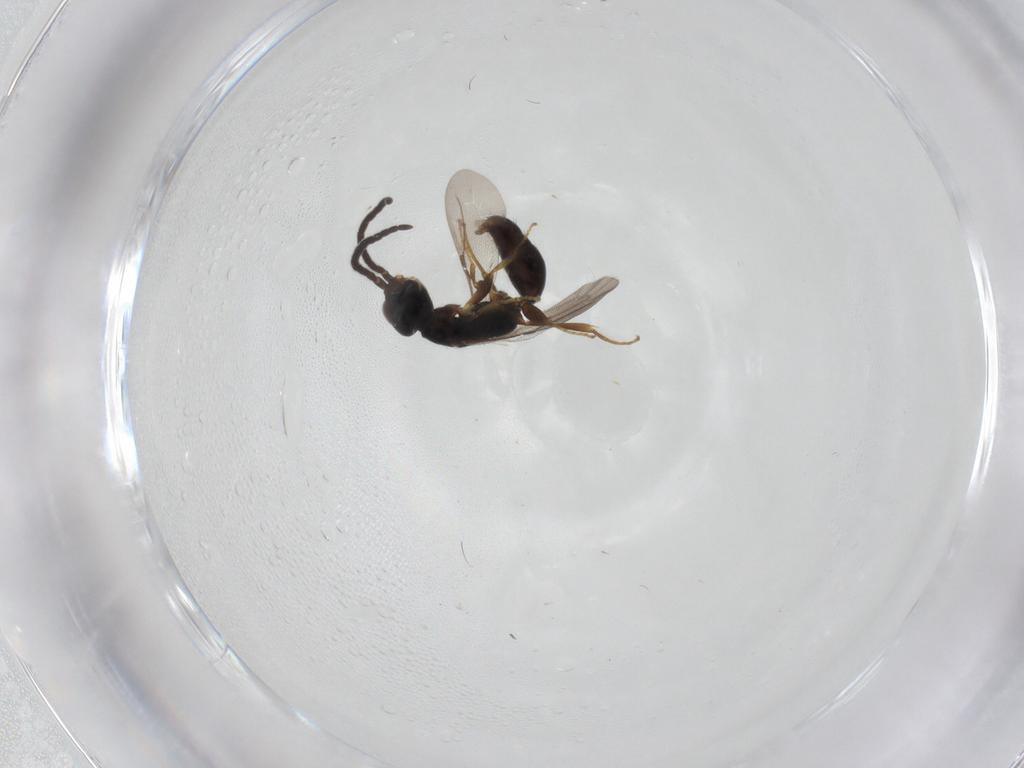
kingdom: Animalia
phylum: Arthropoda
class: Insecta
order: Hymenoptera
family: Bethylidae
